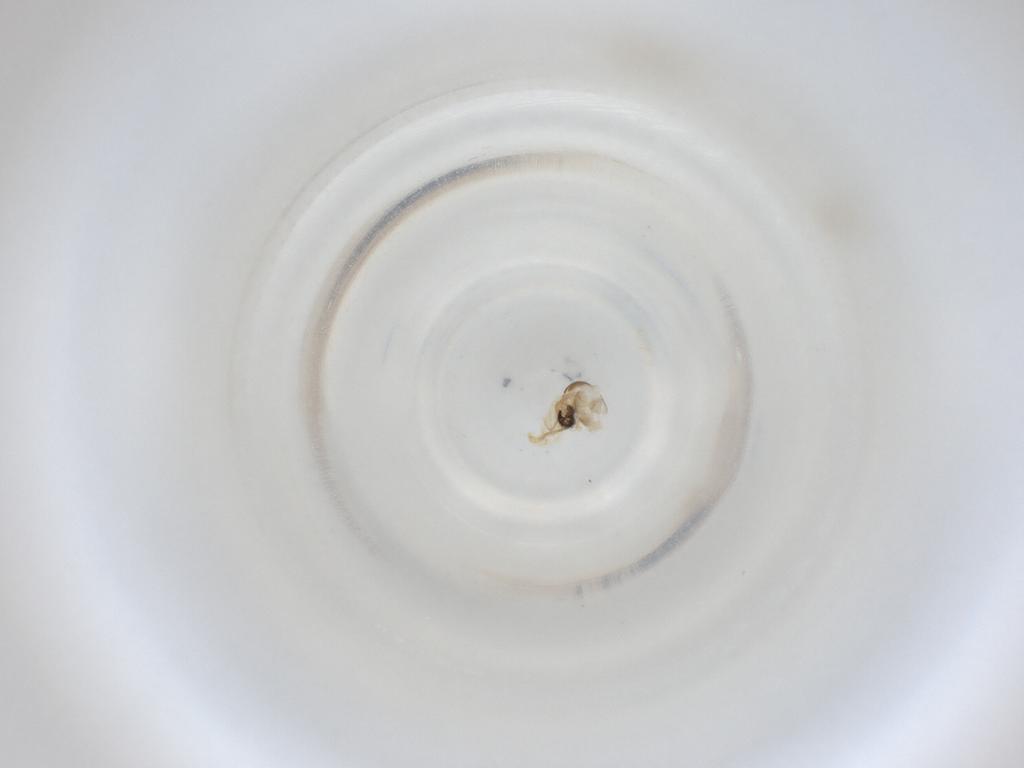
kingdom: Animalia
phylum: Arthropoda
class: Insecta
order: Diptera
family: Cecidomyiidae
